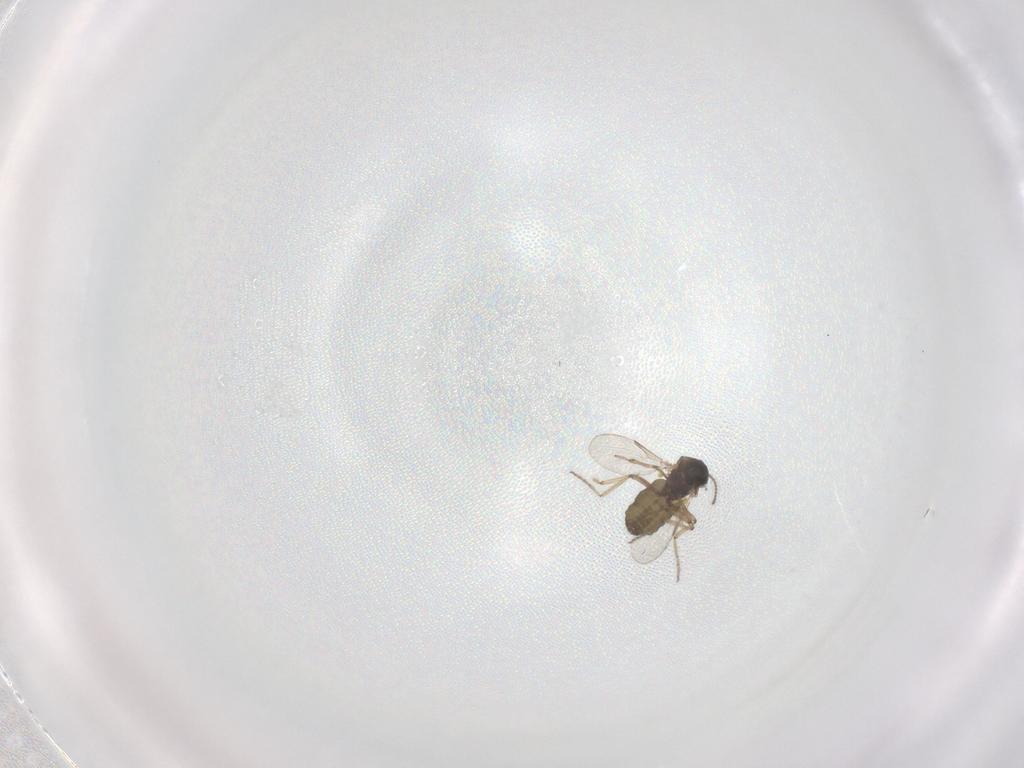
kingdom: Animalia
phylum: Arthropoda
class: Insecta
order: Diptera
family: Ceratopogonidae
